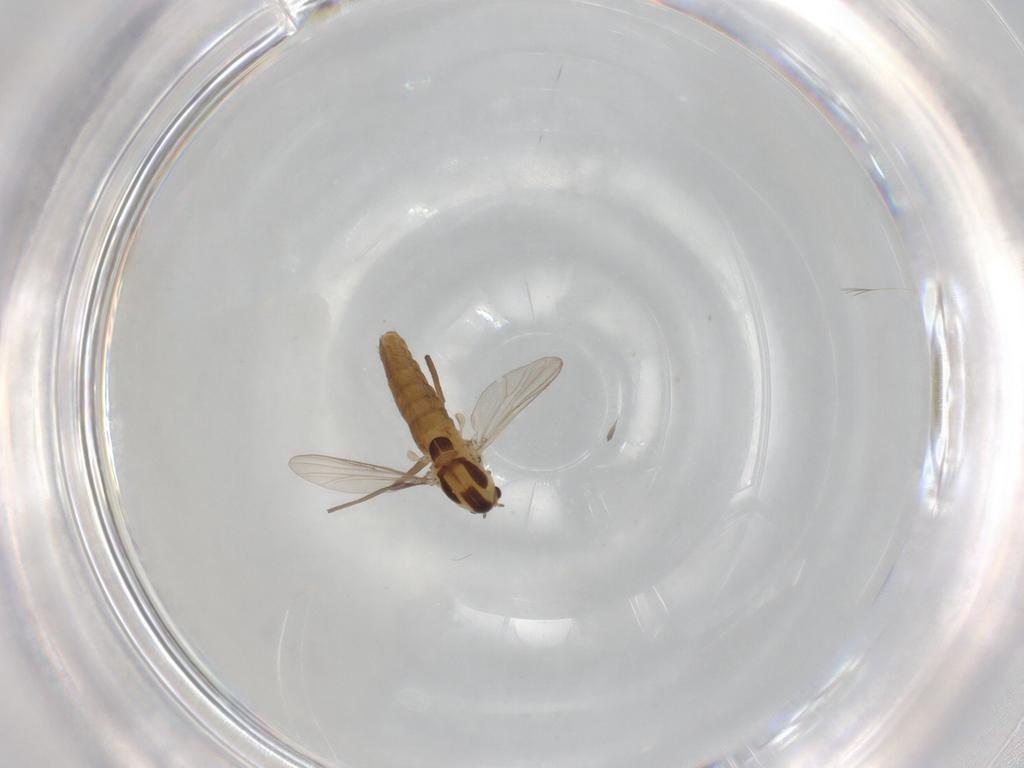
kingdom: Animalia
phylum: Arthropoda
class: Insecta
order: Diptera
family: Chironomidae
